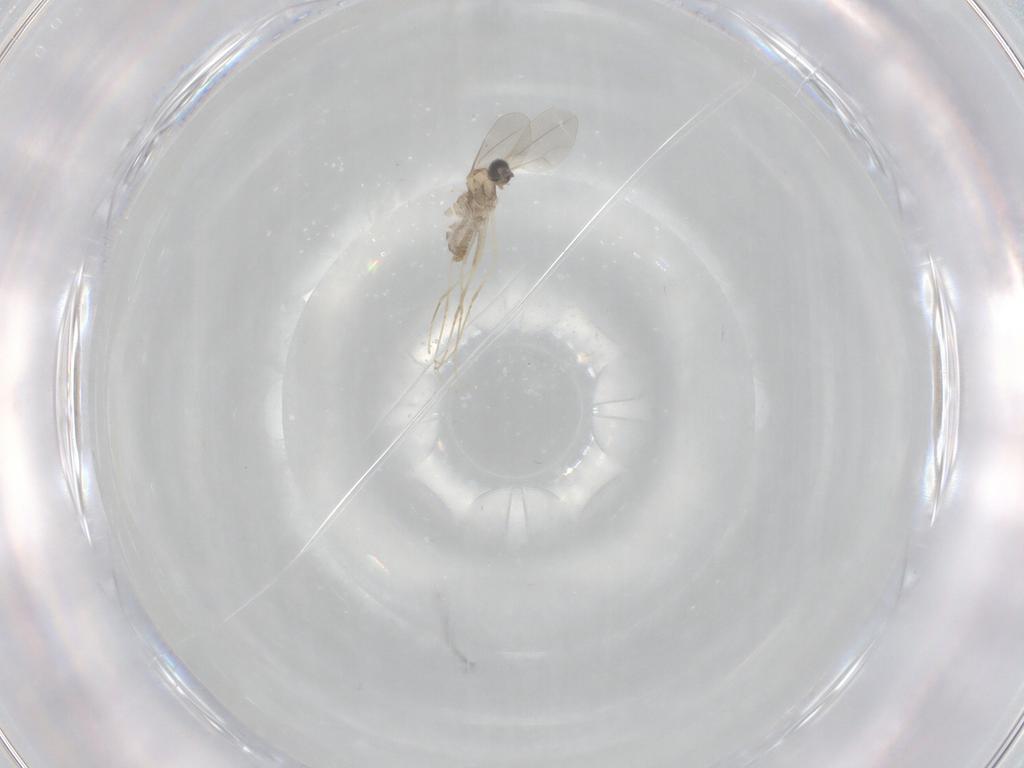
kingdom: Animalia
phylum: Arthropoda
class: Insecta
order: Diptera
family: Cecidomyiidae
